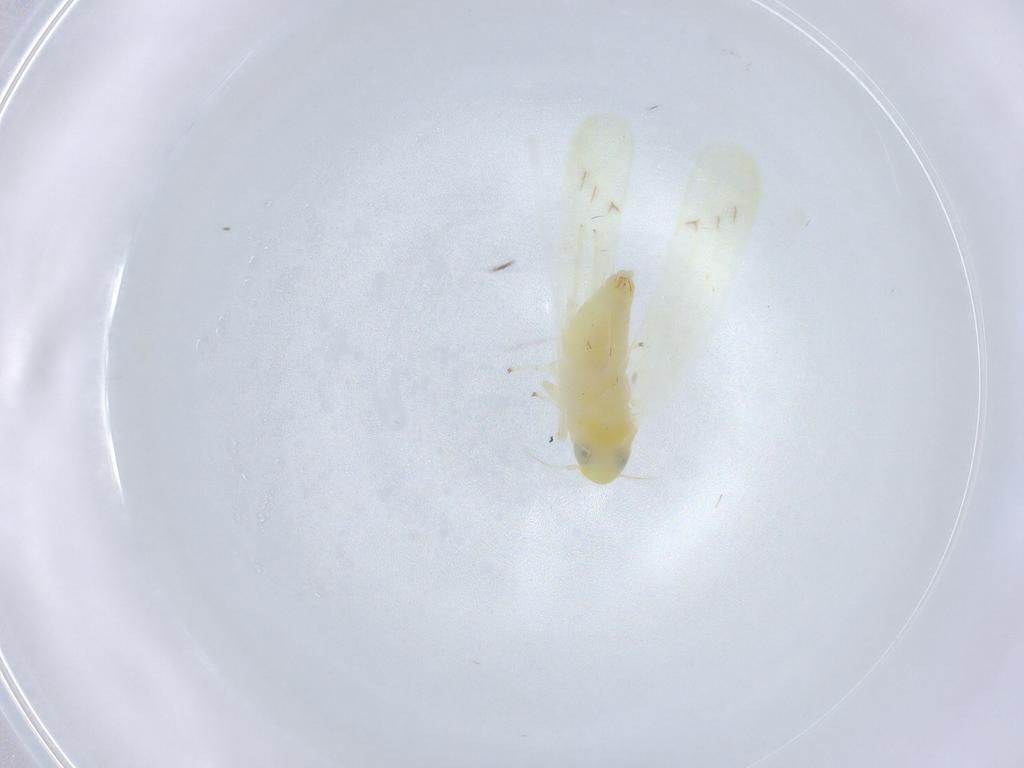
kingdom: Animalia
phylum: Arthropoda
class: Insecta
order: Hemiptera
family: Cicadellidae
